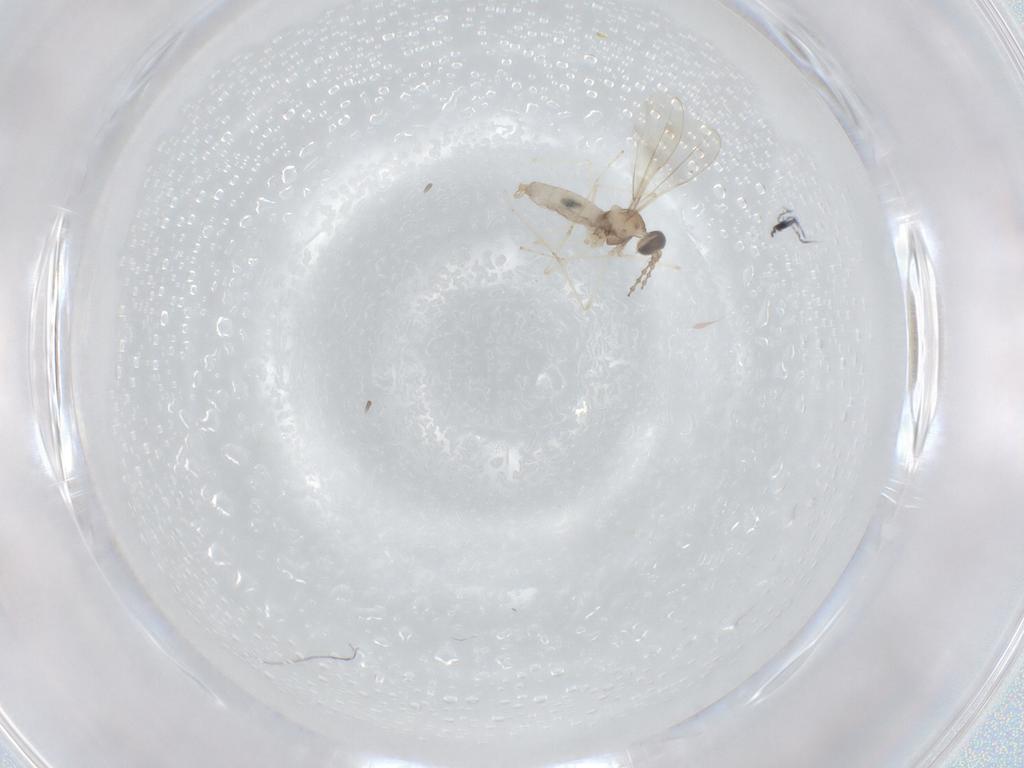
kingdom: Animalia
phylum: Arthropoda
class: Insecta
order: Diptera
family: Cecidomyiidae
